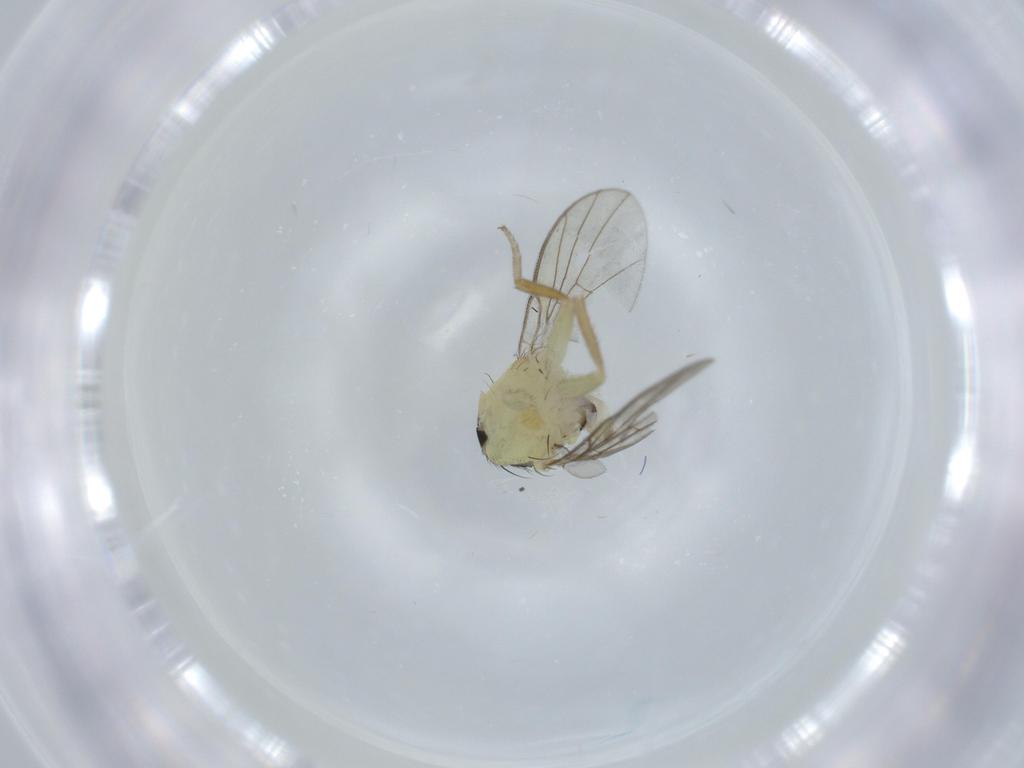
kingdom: Animalia
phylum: Arthropoda
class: Insecta
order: Diptera
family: Agromyzidae
